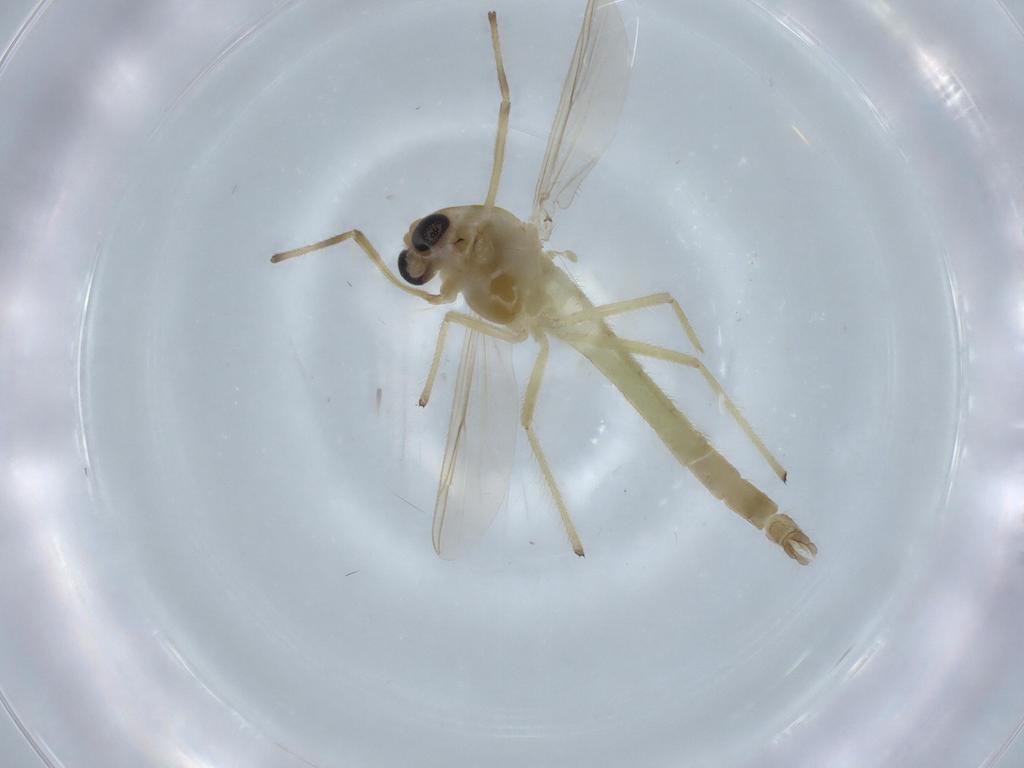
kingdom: Animalia
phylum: Arthropoda
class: Insecta
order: Diptera
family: Chironomidae
